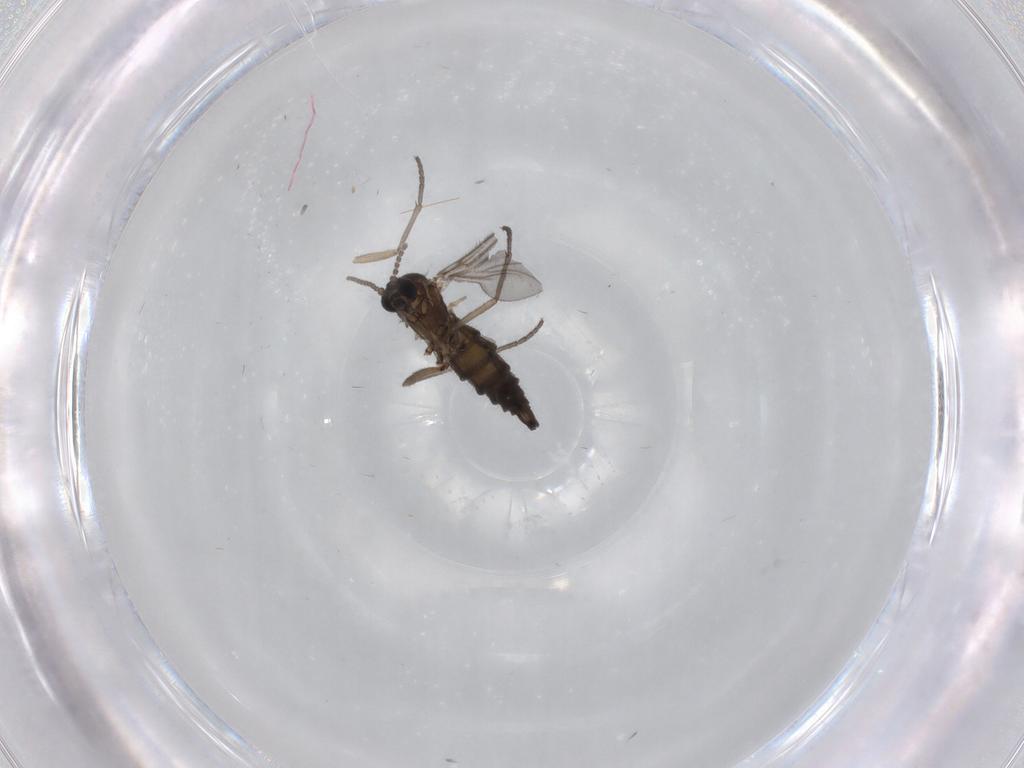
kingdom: Animalia
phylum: Arthropoda
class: Insecta
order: Diptera
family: Sciaridae
